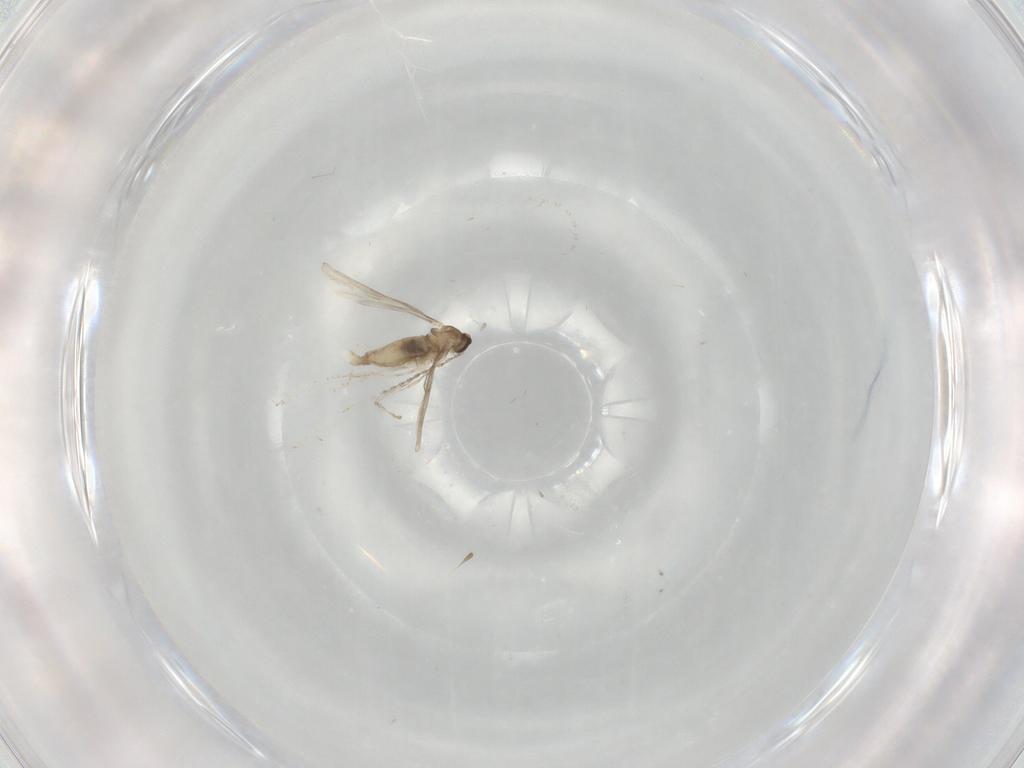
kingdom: Animalia
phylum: Arthropoda
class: Insecta
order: Diptera
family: Cecidomyiidae
